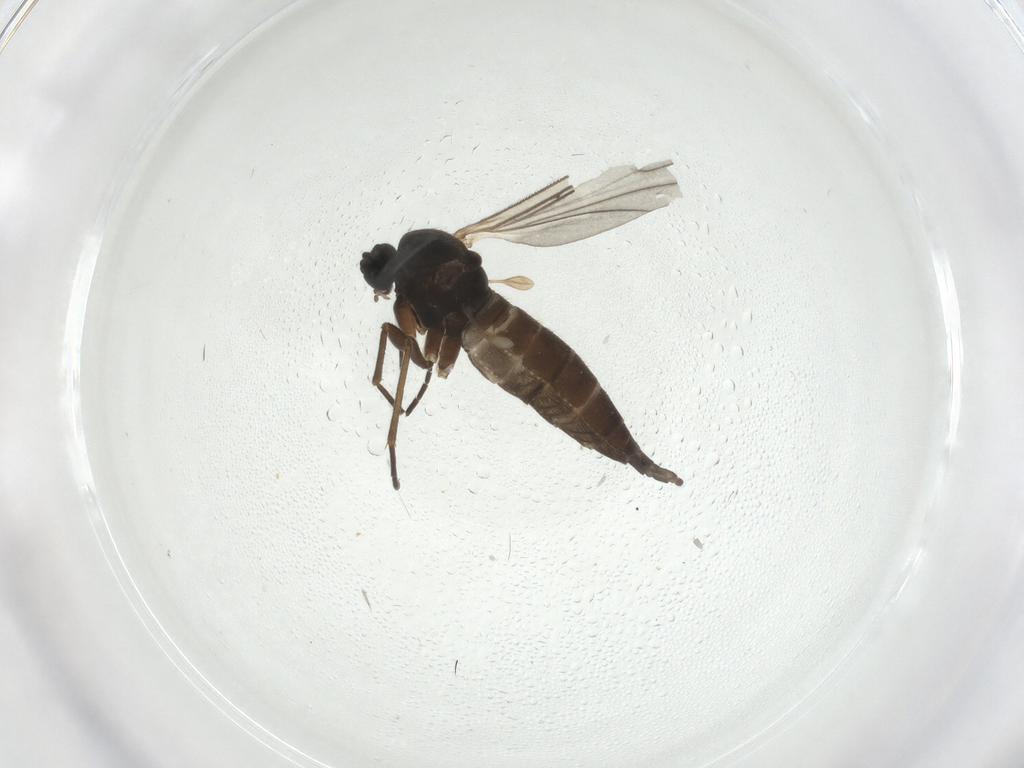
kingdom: Animalia
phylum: Arthropoda
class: Insecta
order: Diptera
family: Sciaridae
